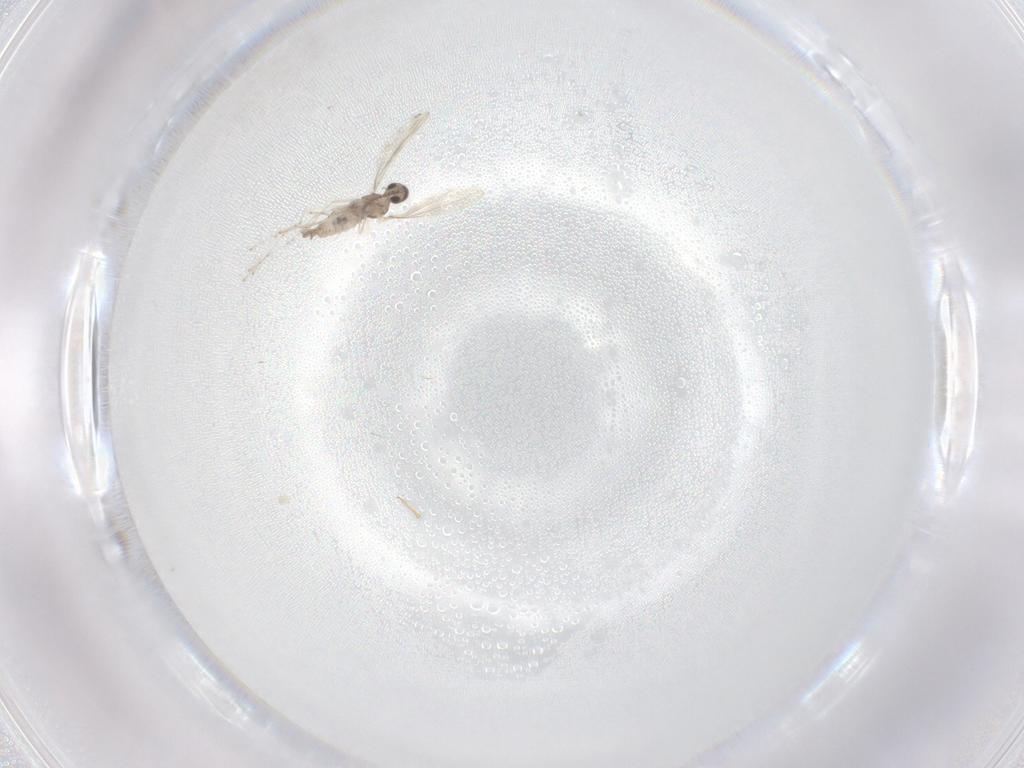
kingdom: Animalia
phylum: Arthropoda
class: Insecta
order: Diptera
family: Cecidomyiidae
